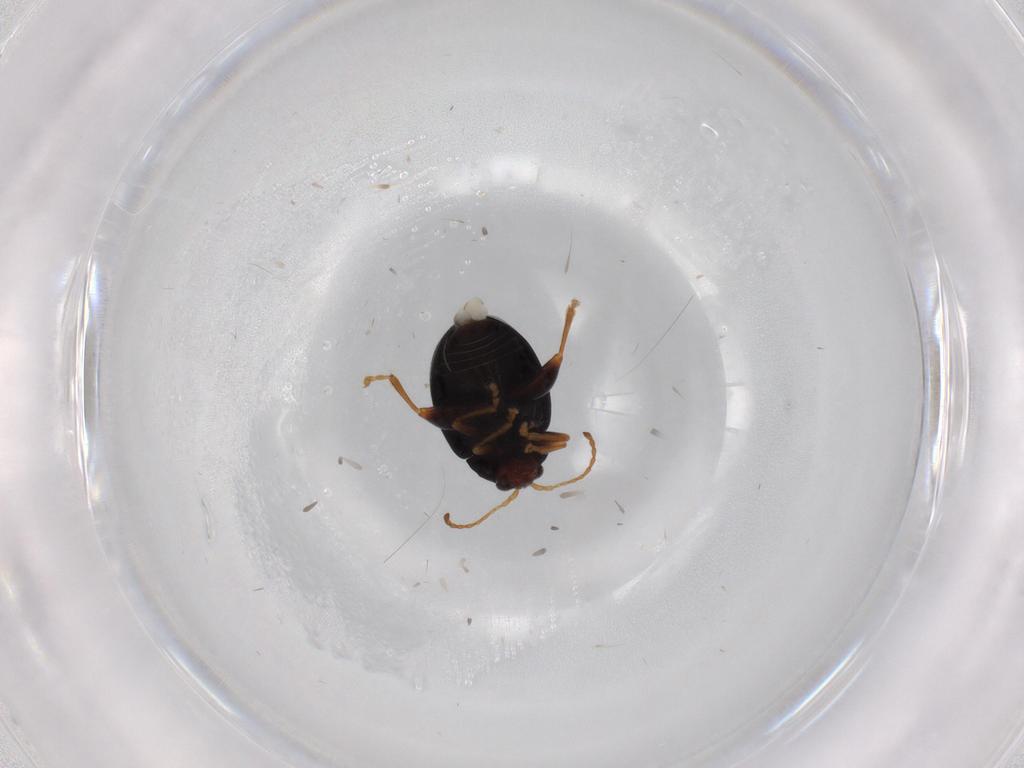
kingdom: Animalia
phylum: Arthropoda
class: Insecta
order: Coleoptera
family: Chrysomelidae
